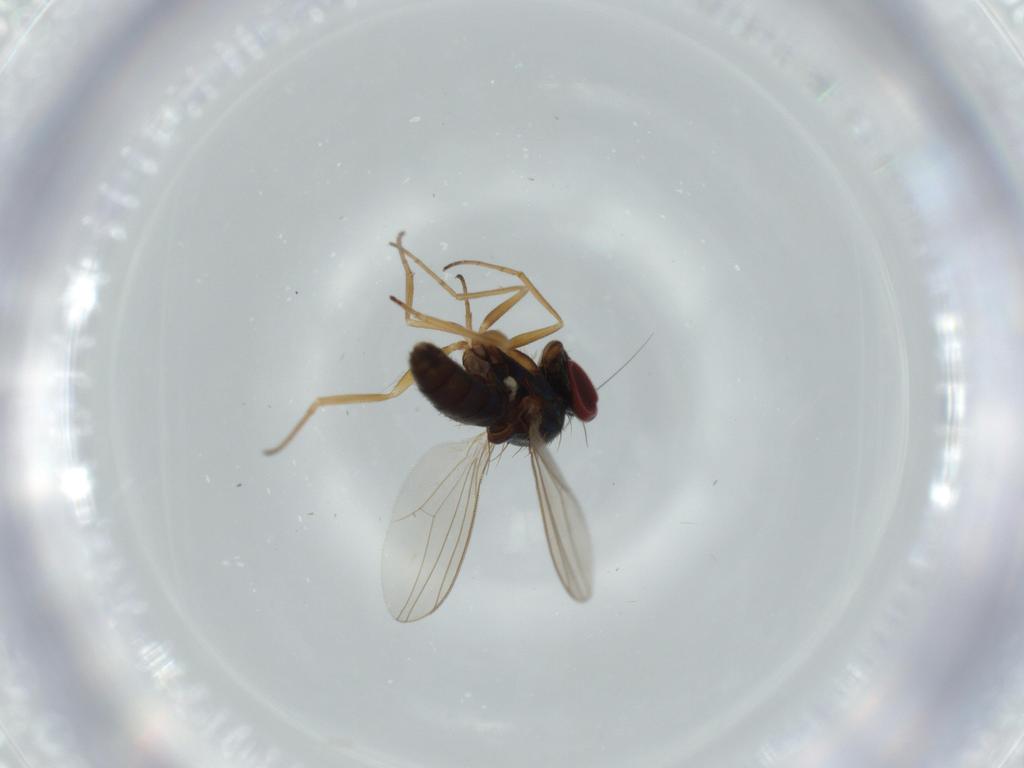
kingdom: Animalia
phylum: Arthropoda
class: Insecta
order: Diptera
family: Dolichopodidae
